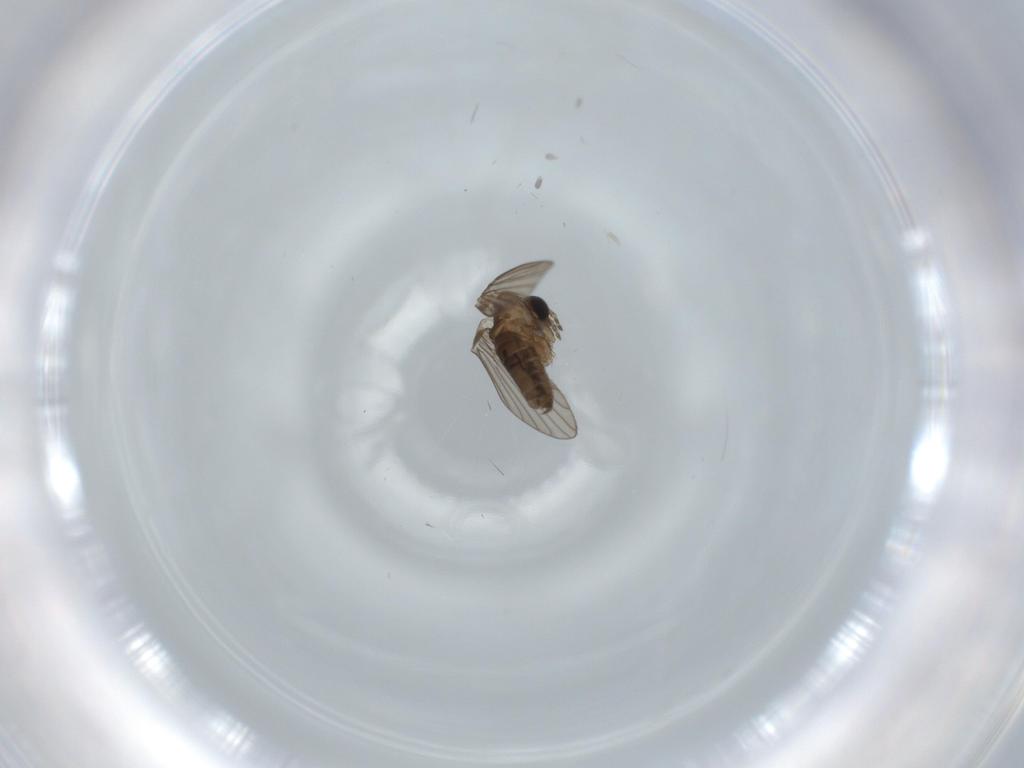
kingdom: Animalia
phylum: Arthropoda
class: Insecta
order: Diptera
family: Psychodidae
